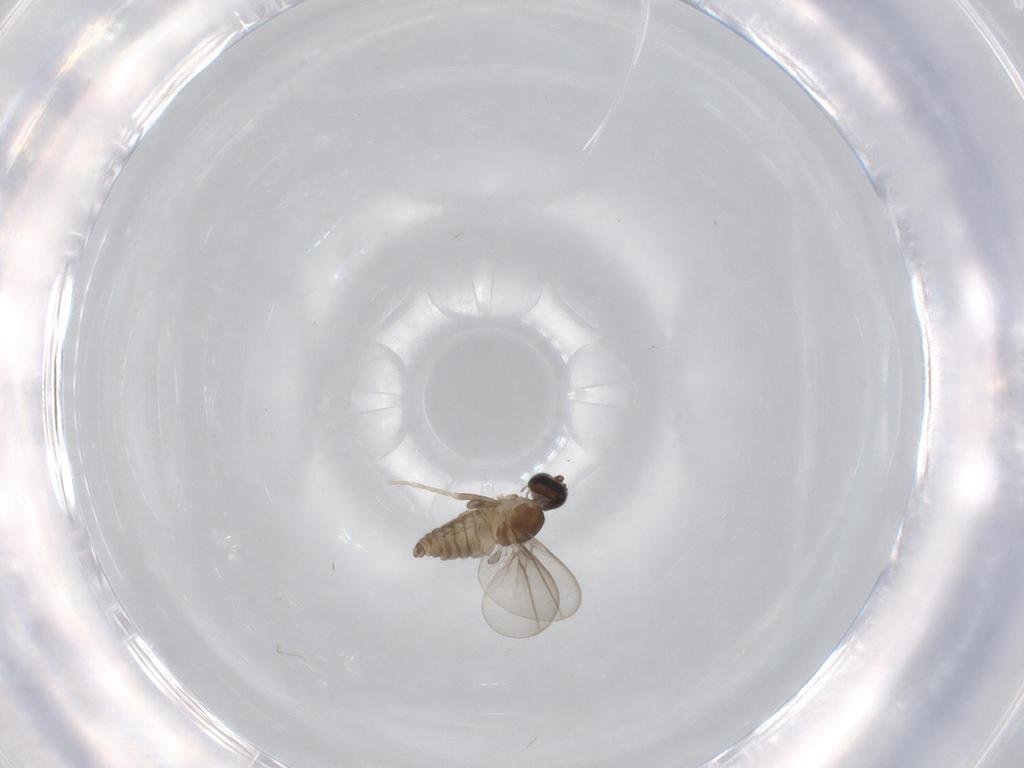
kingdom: Animalia
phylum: Arthropoda
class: Insecta
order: Diptera
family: Cecidomyiidae
